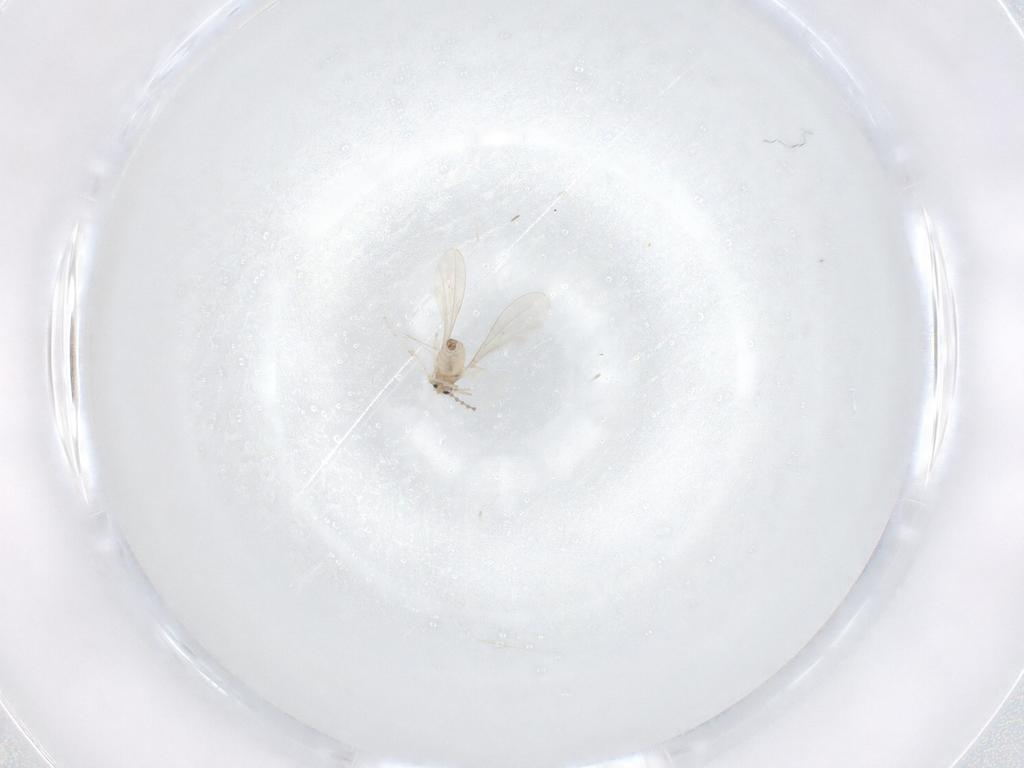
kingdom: Animalia
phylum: Arthropoda
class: Insecta
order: Diptera
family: Cecidomyiidae
